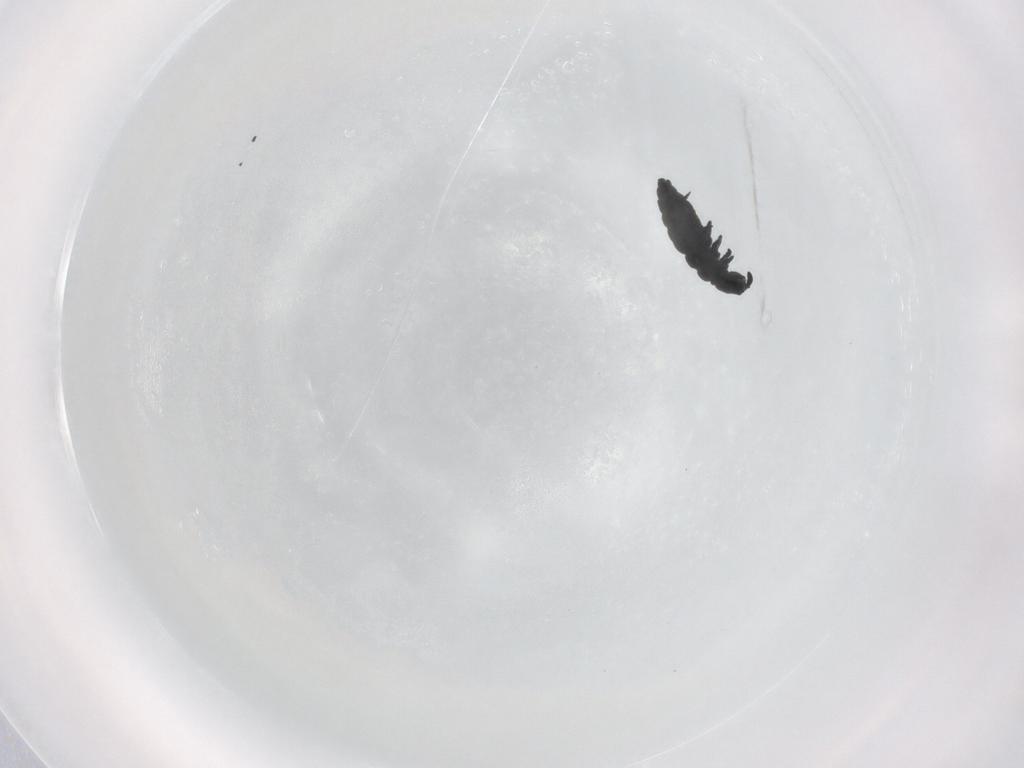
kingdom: Animalia
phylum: Arthropoda
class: Collembola
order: Poduromorpha
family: Hypogastruridae
